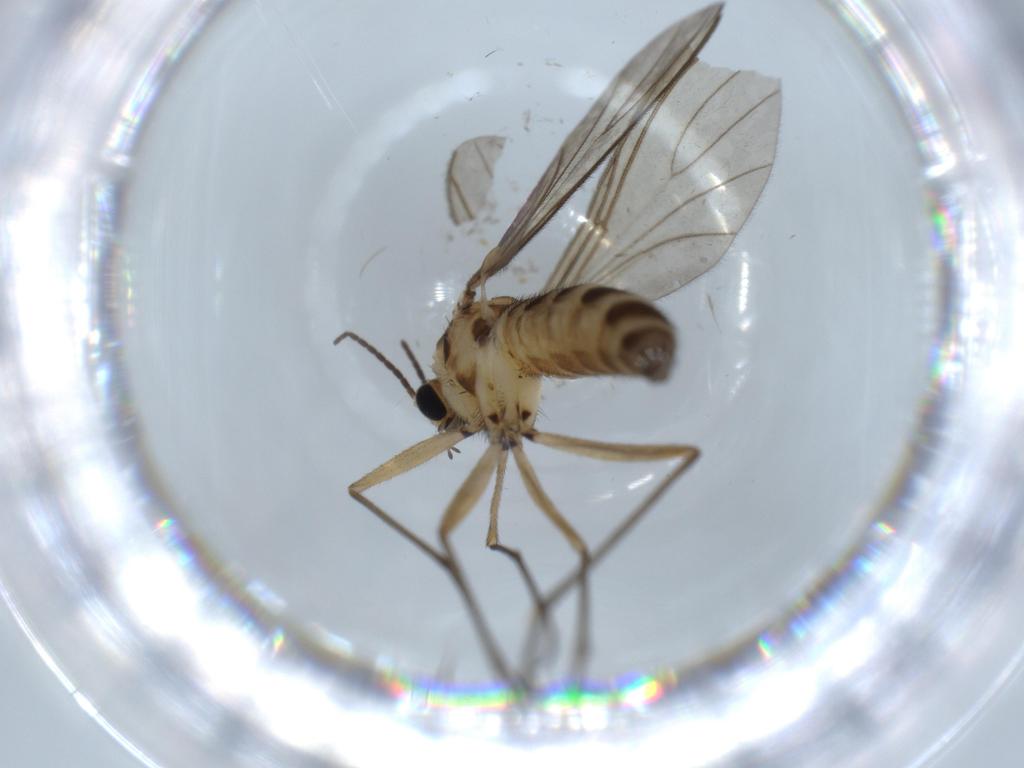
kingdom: Animalia
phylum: Arthropoda
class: Insecta
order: Diptera
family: Sciaridae
